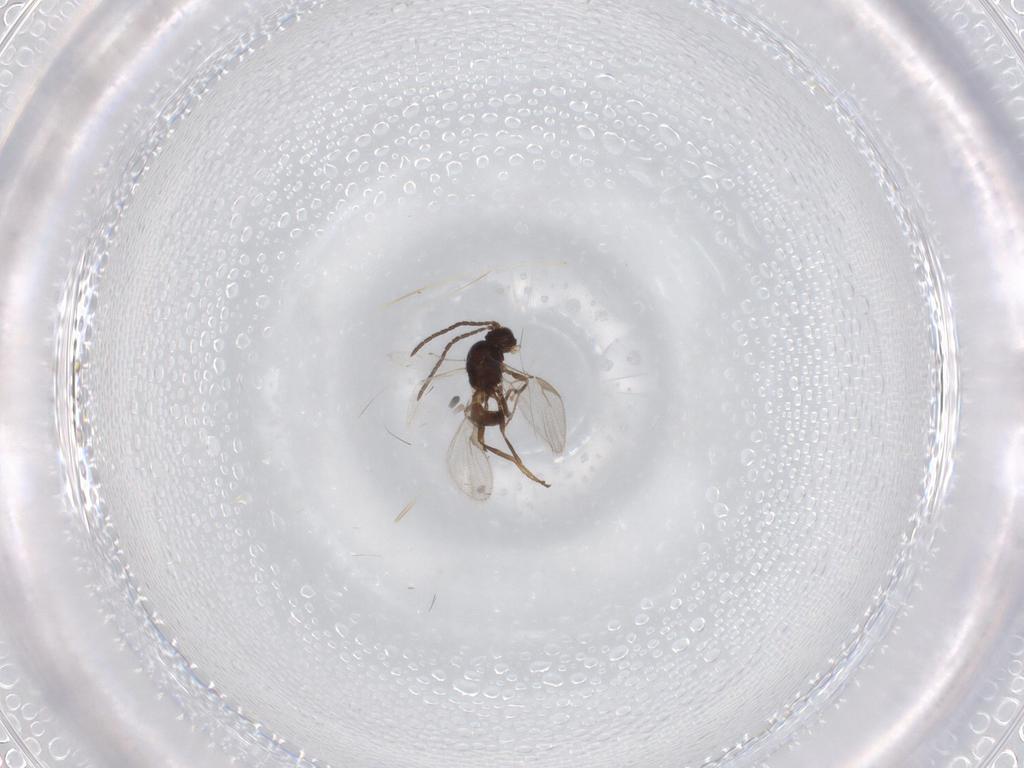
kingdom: Animalia
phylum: Arthropoda
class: Insecta
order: Hymenoptera
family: Braconidae
